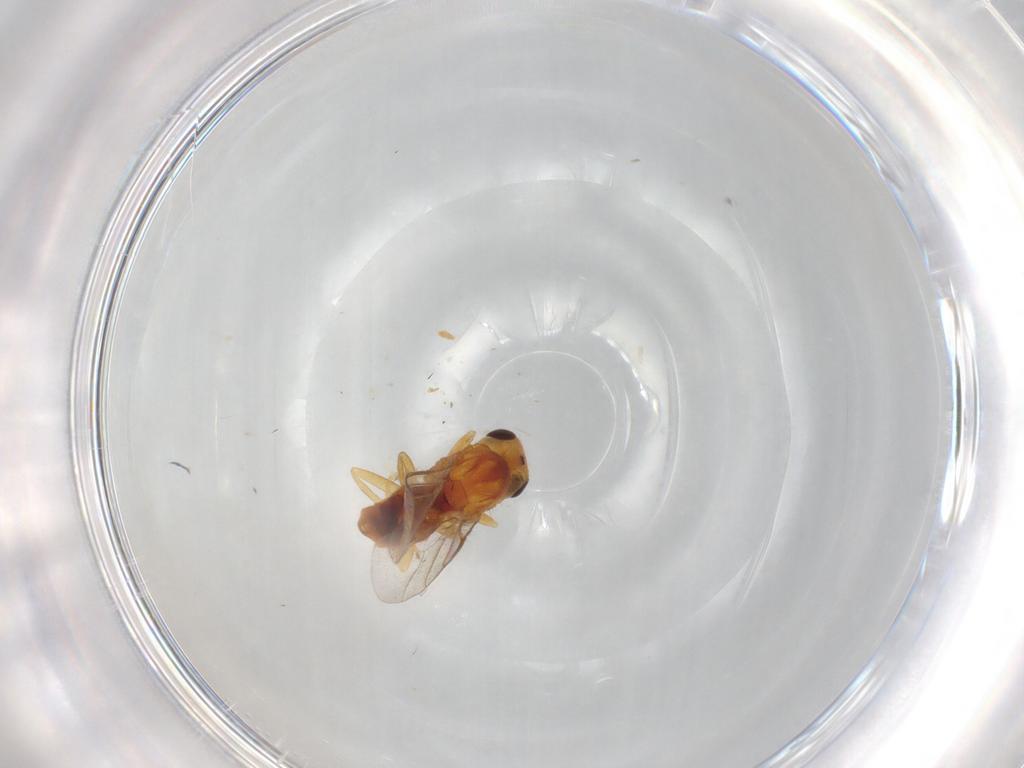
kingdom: Animalia
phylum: Arthropoda
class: Insecta
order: Diptera
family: Chloropidae
